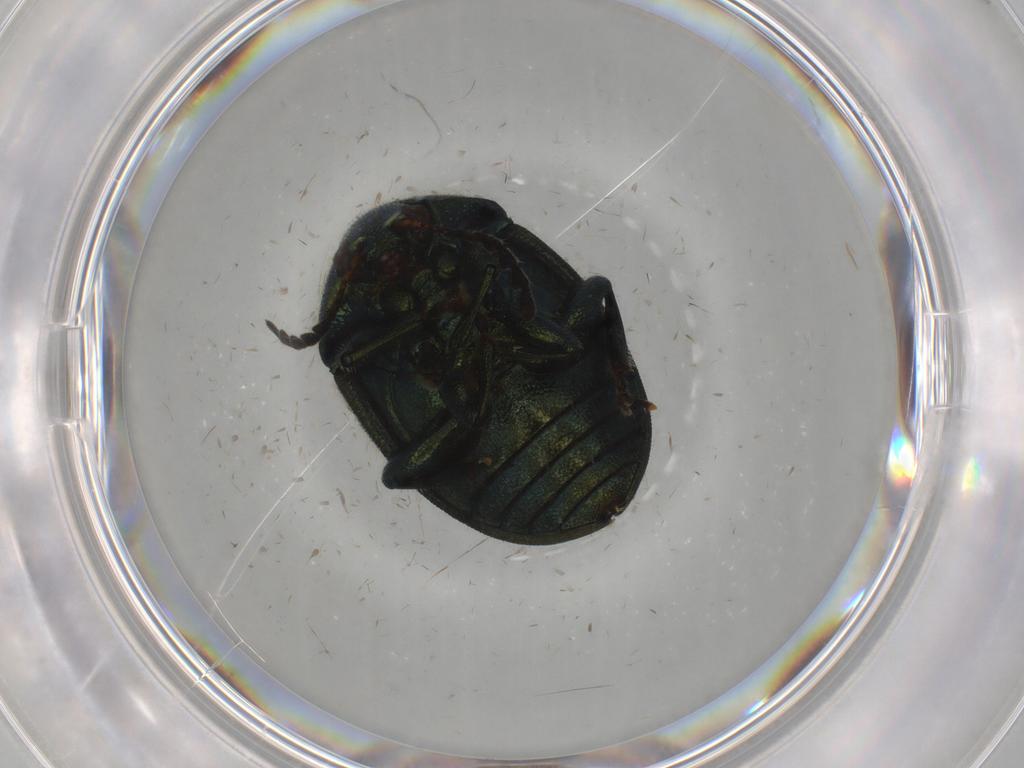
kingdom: Animalia
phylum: Arthropoda
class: Insecta
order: Coleoptera
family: Chrysomelidae
